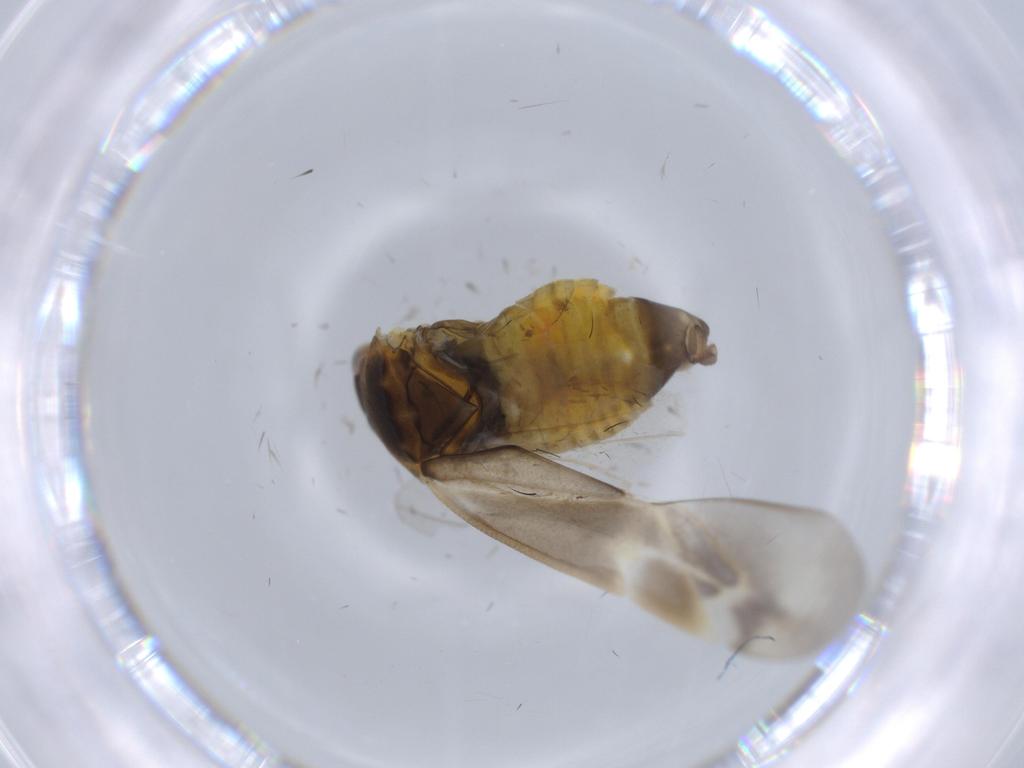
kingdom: Animalia
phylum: Arthropoda
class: Insecta
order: Hemiptera
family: Miridae
